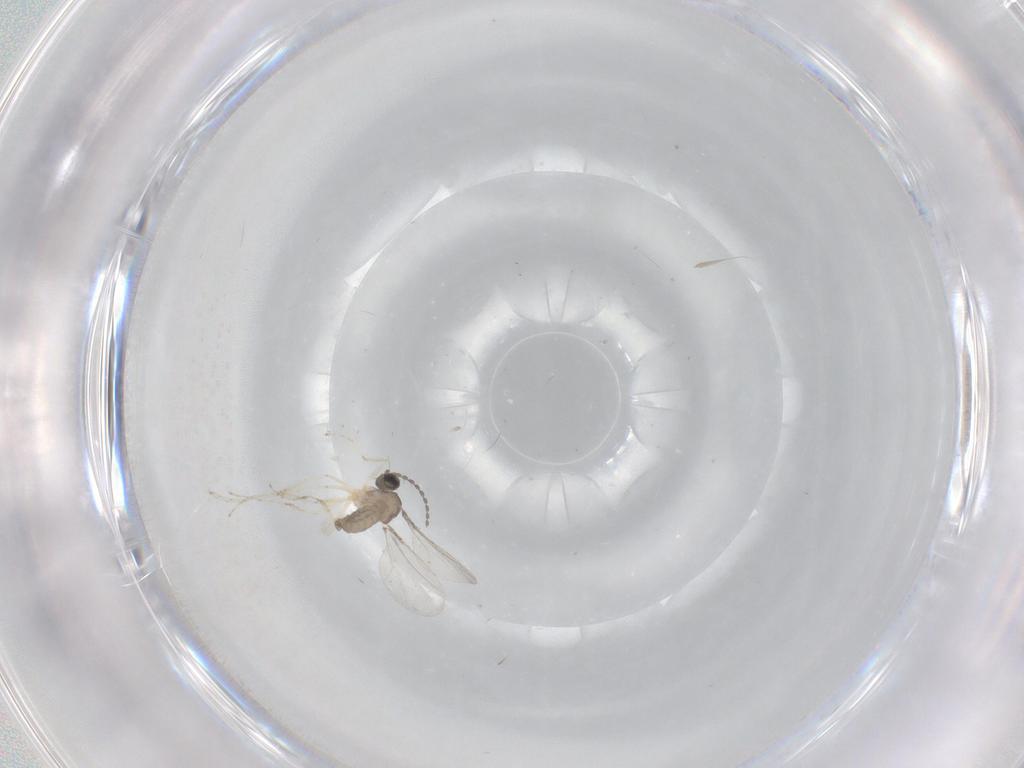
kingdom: Animalia
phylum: Arthropoda
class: Insecta
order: Diptera
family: Cecidomyiidae
